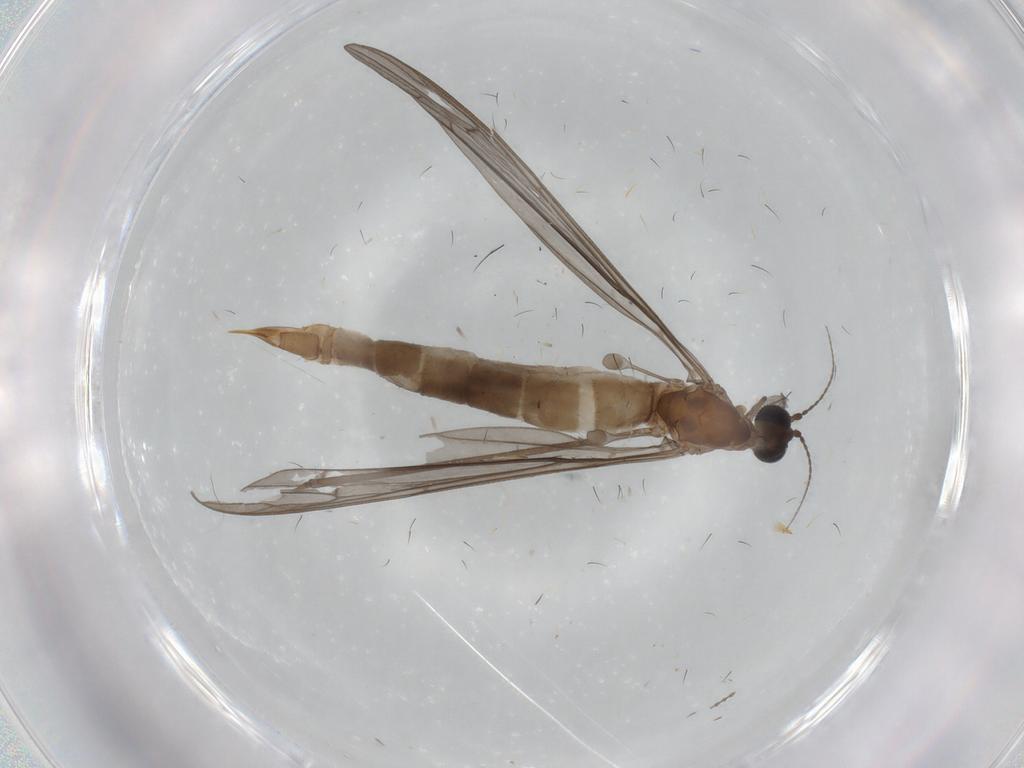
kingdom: Animalia
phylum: Arthropoda
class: Insecta
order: Diptera
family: Limoniidae
